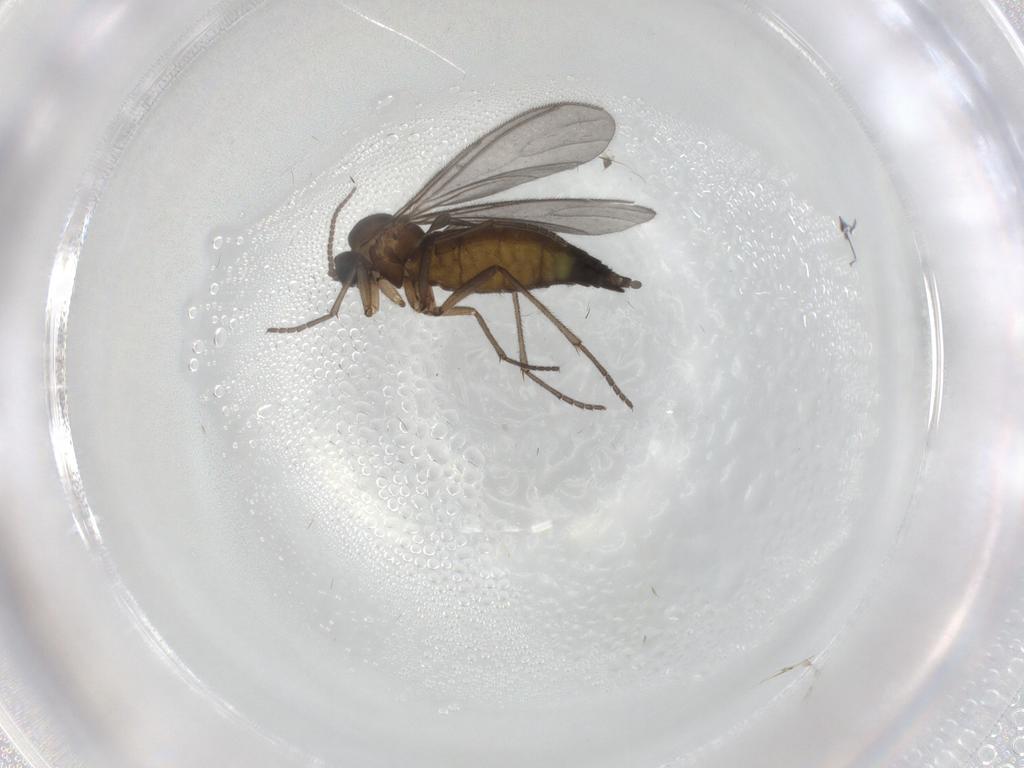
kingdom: Animalia
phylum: Arthropoda
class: Insecta
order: Diptera
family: Sciaridae
